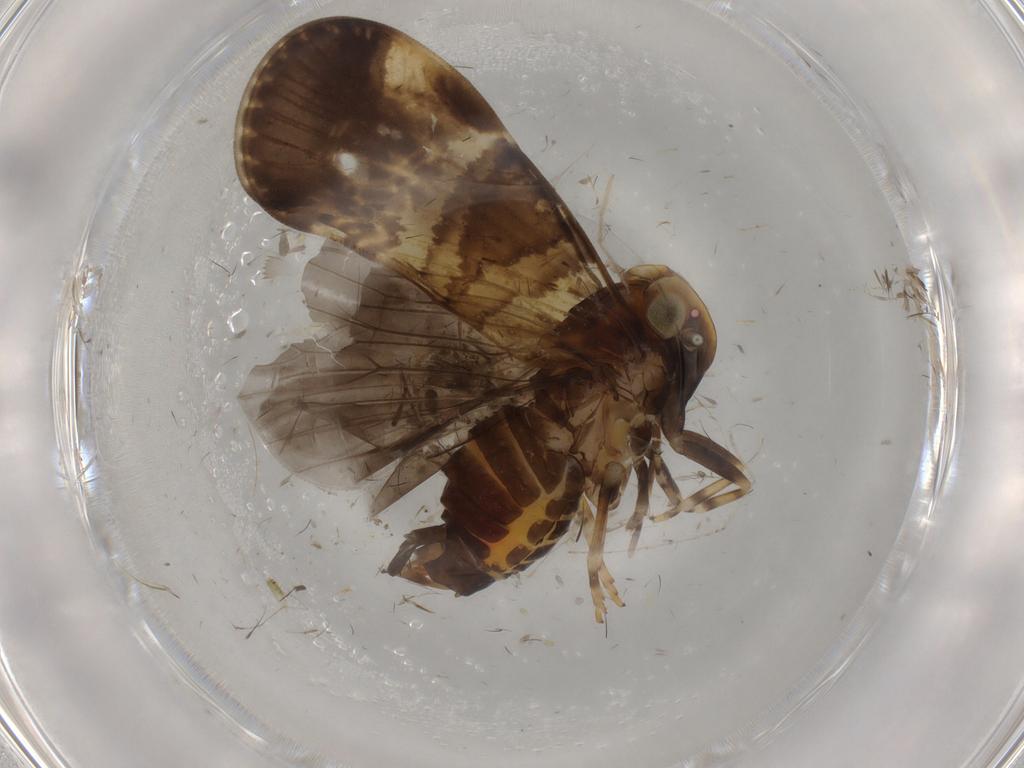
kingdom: Animalia
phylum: Arthropoda
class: Insecta
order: Hemiptera
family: Cixiidae
